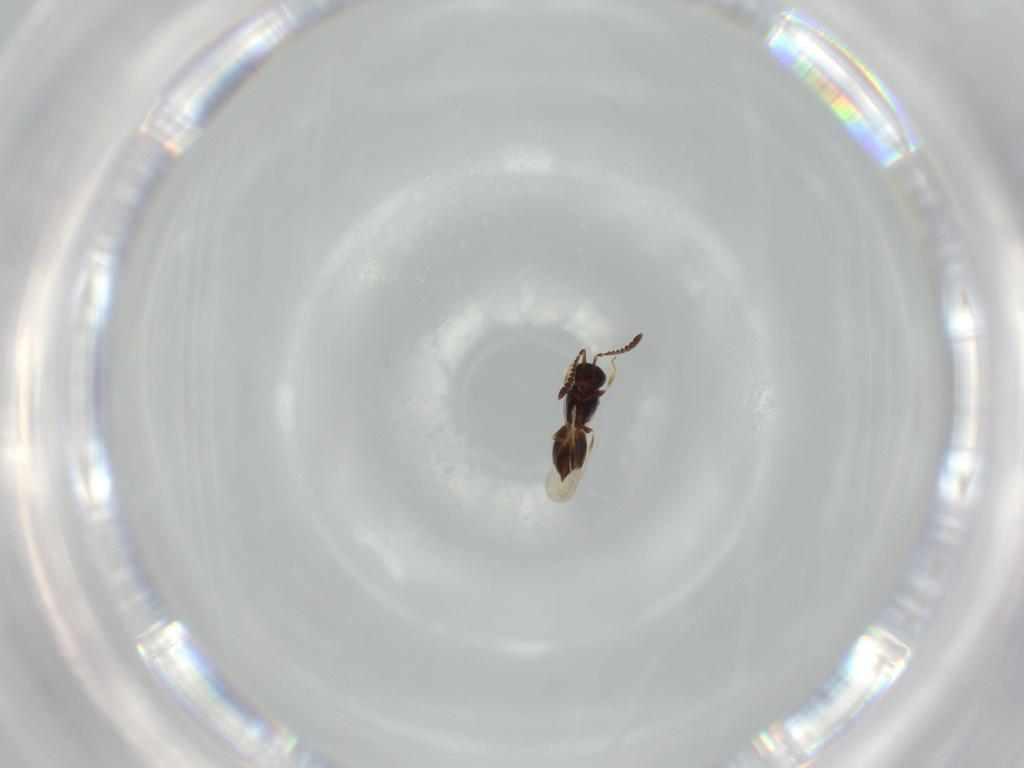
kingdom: Animalia
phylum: Arthropoda
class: Insecta
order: Hymenoptera
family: Ceraphronidae
